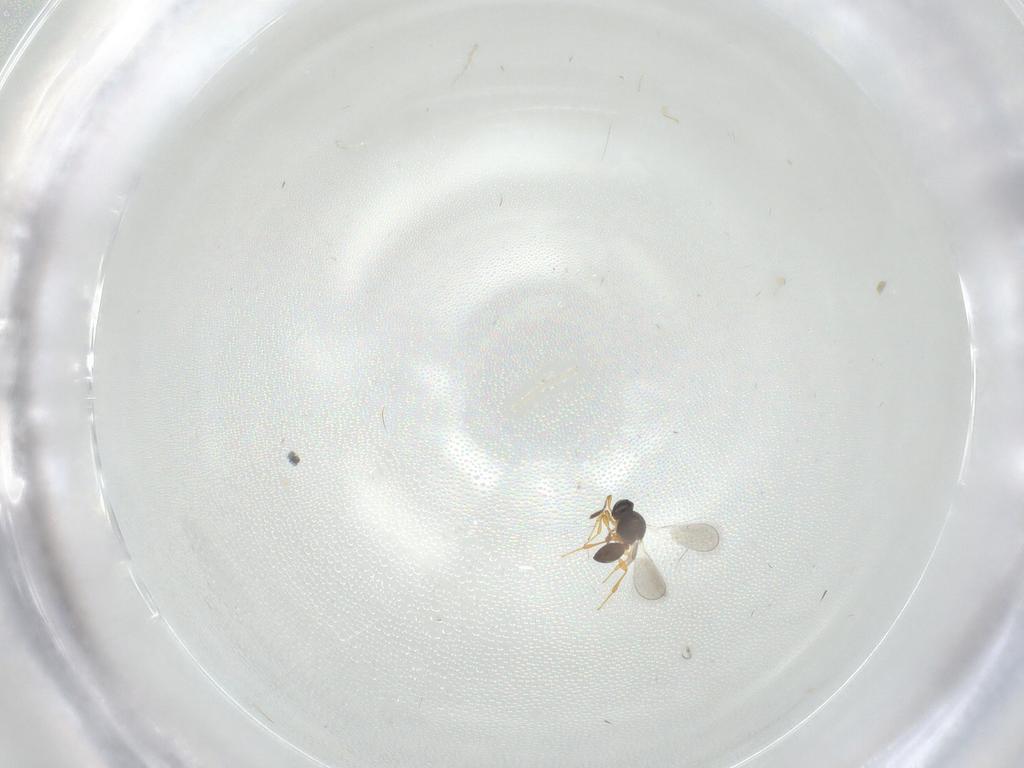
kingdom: Animalia
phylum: Arthropoda
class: Insecta
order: Hymenoptera
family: Platygastridae
